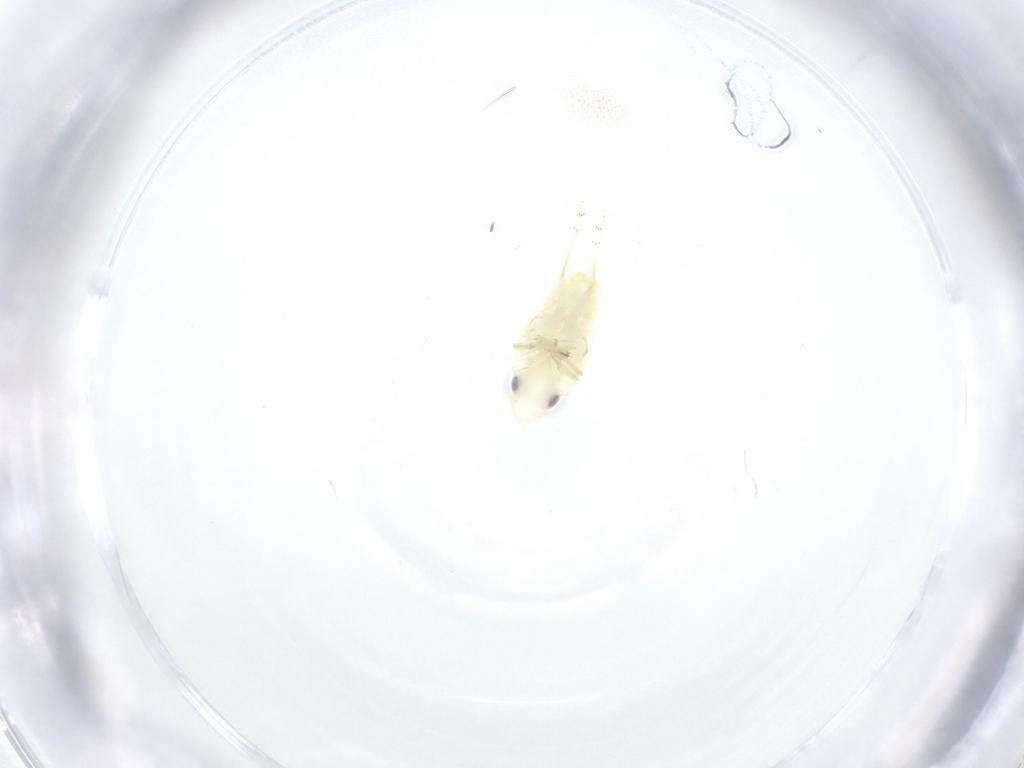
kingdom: Animalia
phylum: Arthropoda
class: Insecta
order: Hemiptera
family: Tropiduchidae
